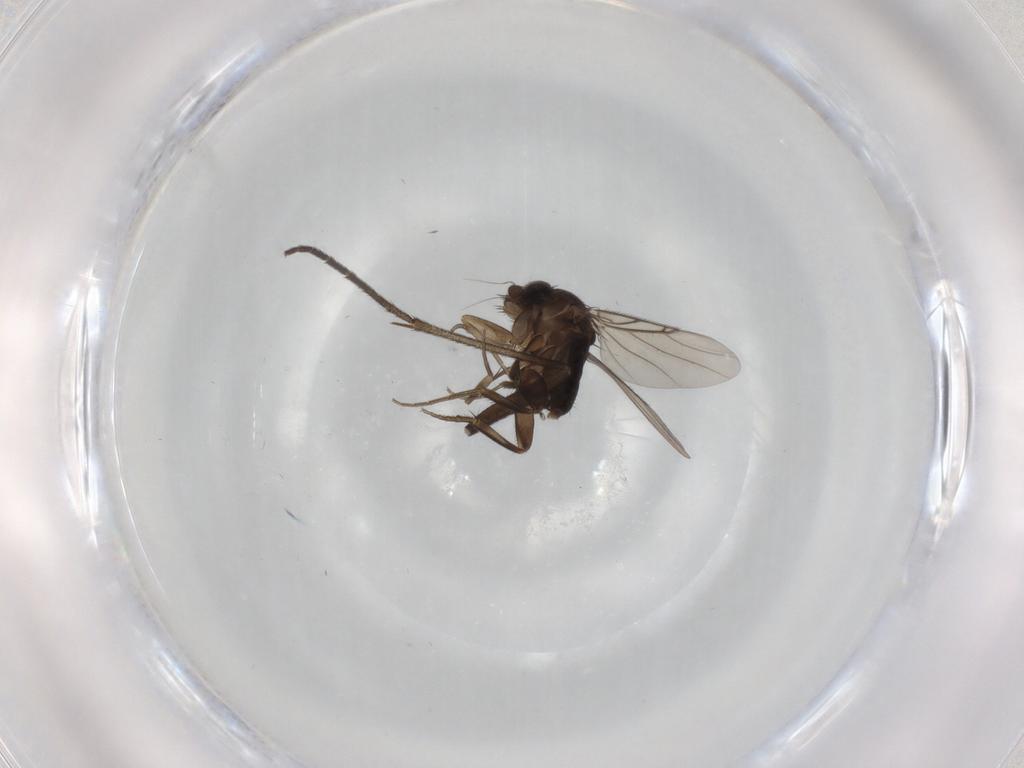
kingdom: Animalia
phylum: Arthropoda
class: Insecta
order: Diptera
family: Phoridae
